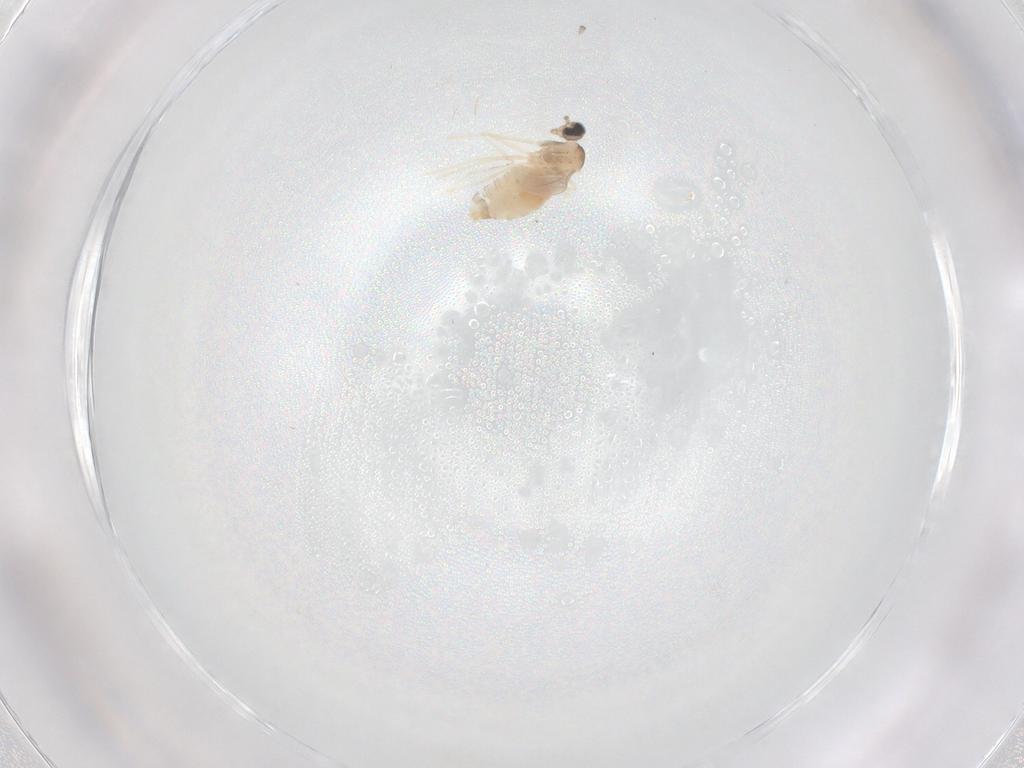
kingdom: Animalia
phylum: Arthropoda
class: Insecta
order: Diptera
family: Cecidomyiidae
